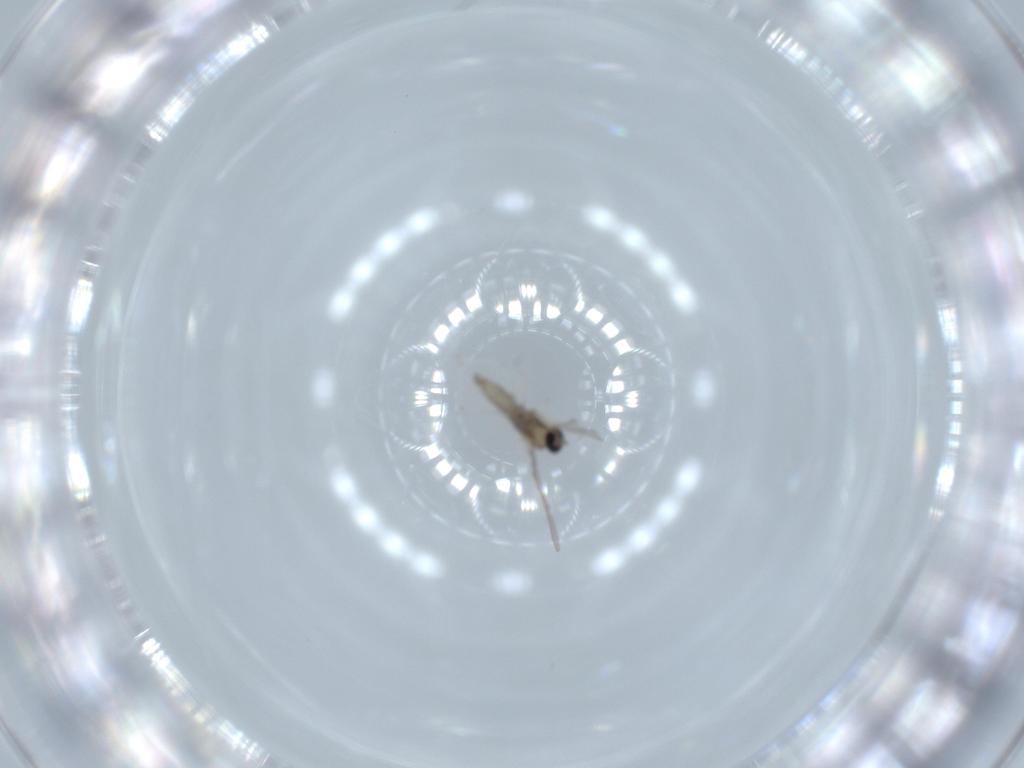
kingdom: Animalia
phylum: Arthropoda
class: Insecta
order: Diptera
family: Cecidomyiidae
